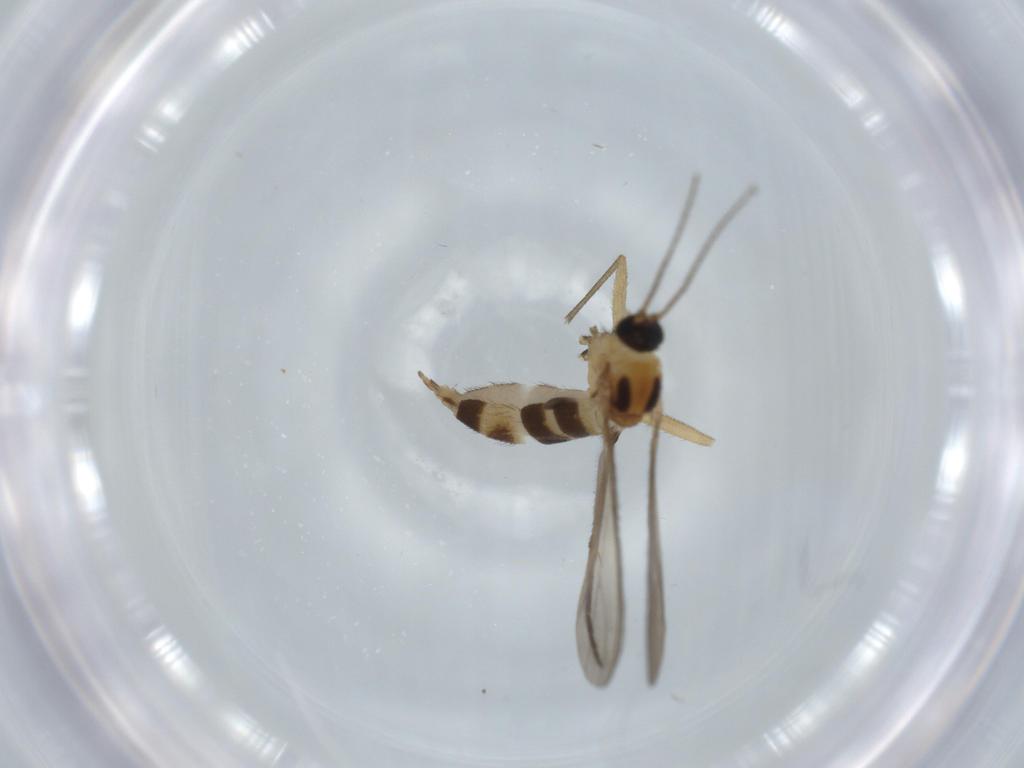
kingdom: Animalia
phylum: Arthropoda
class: Insecta
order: Diptera
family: Sciaridae
